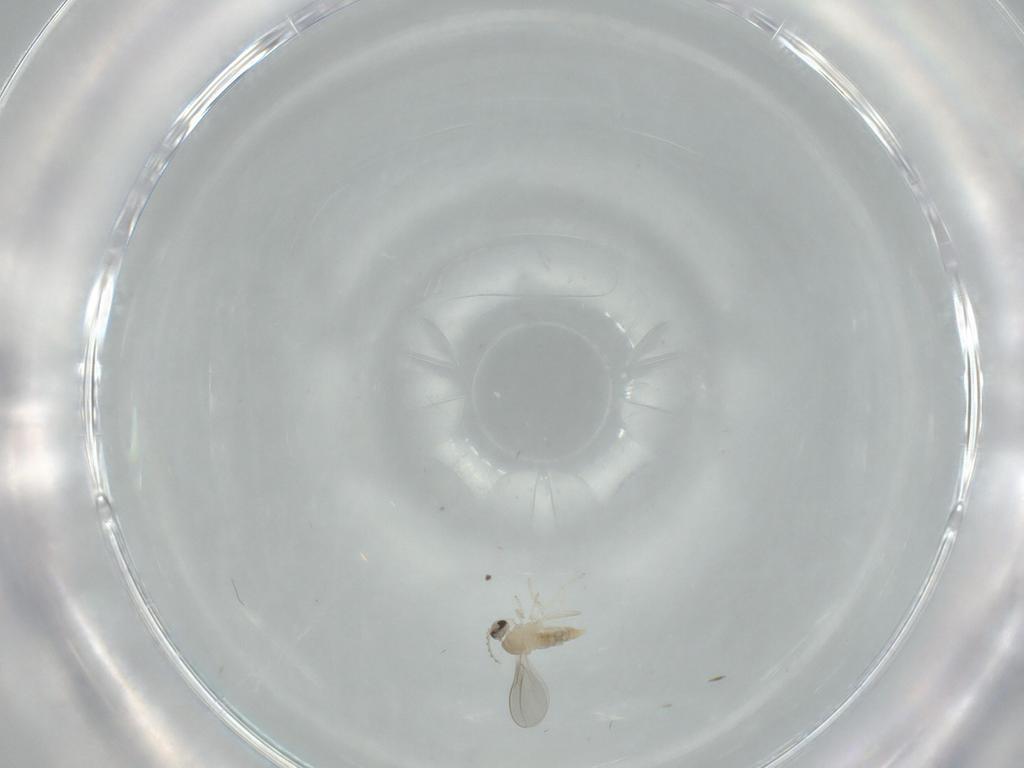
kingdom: Animalia
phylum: Arthropoda
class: Insecta
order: Diptera
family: Cecidomyiidae
